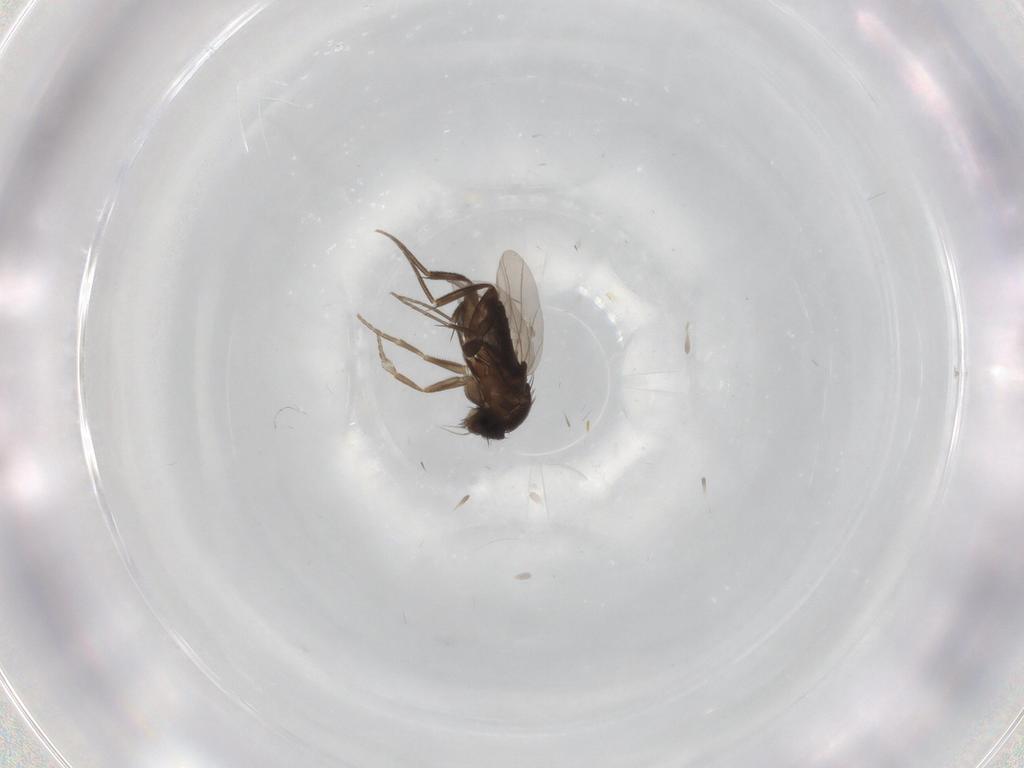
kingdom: Animalia
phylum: Arthropoda
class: Insecta
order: Diptera
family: Phoridae
